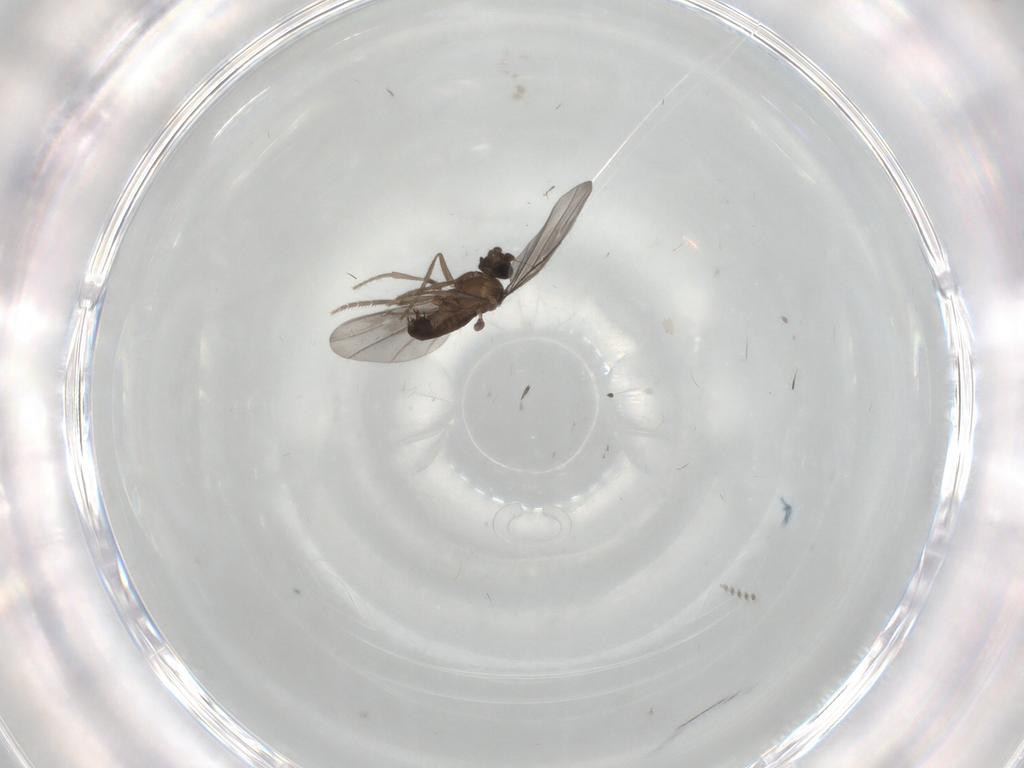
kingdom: Animalia
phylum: Arthropoda
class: Insecta
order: Diptera
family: Phoridae
